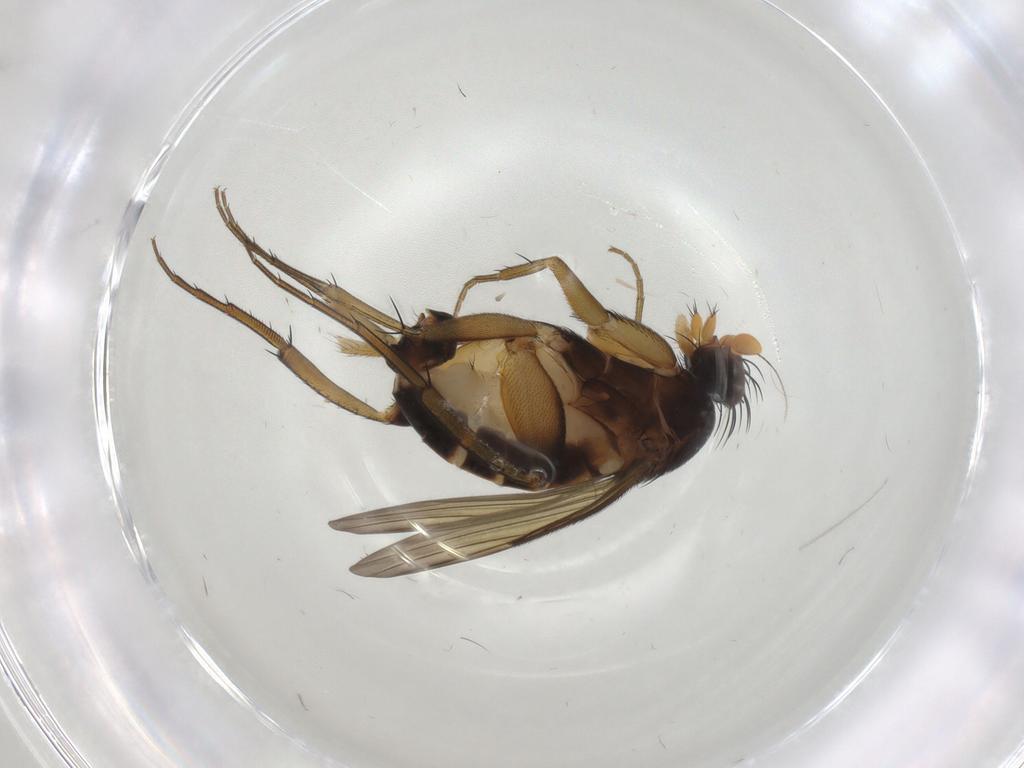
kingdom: Animalia
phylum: Arthropoda
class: Insecta
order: Diptera
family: Phoridae
